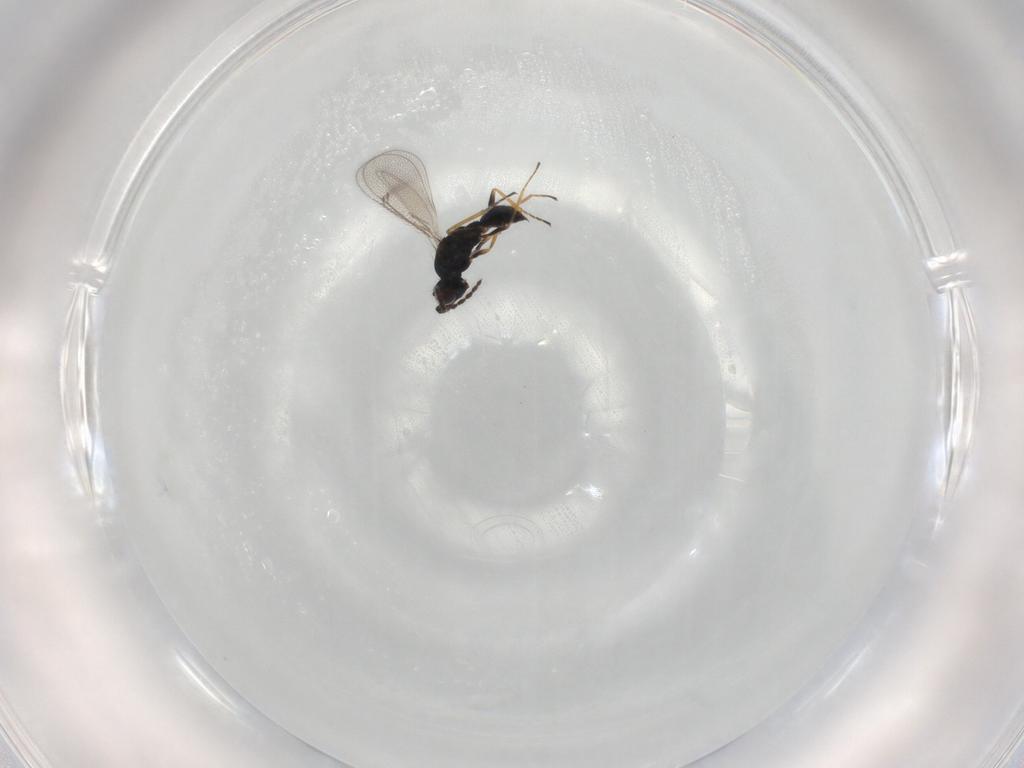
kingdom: Animalia
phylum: Arthropoda
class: Insecta
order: Hymenoptera
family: Eulophidae
